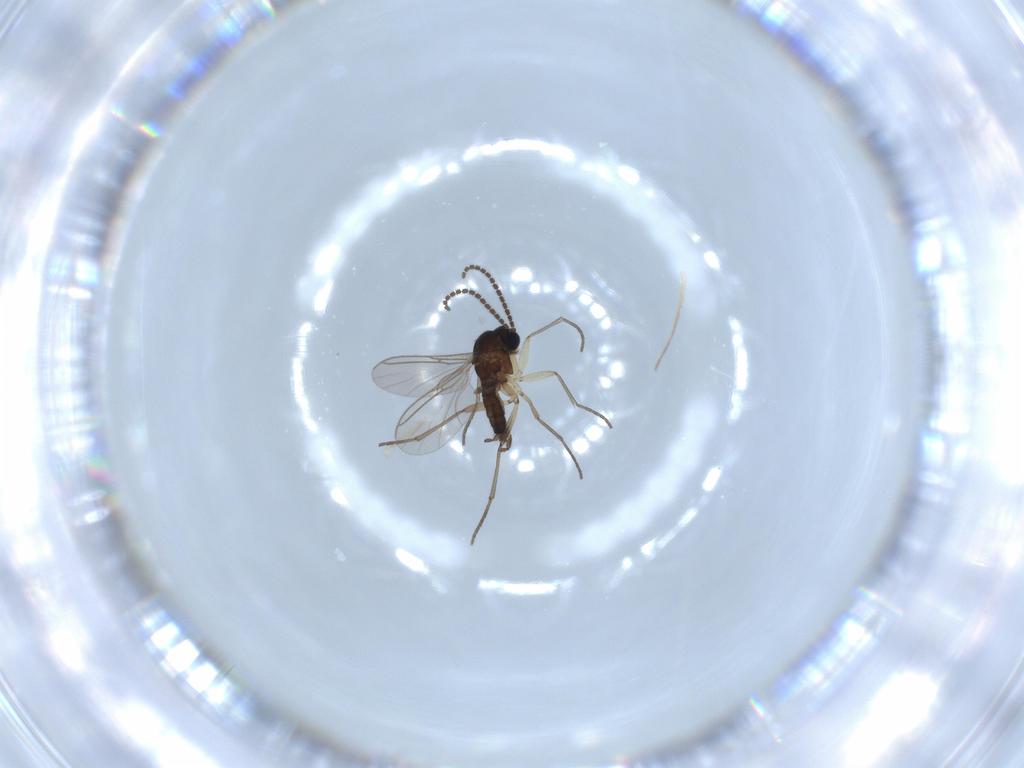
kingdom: Animalia
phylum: Arthropoda
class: Insecta
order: Diptera
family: Sciaridae
